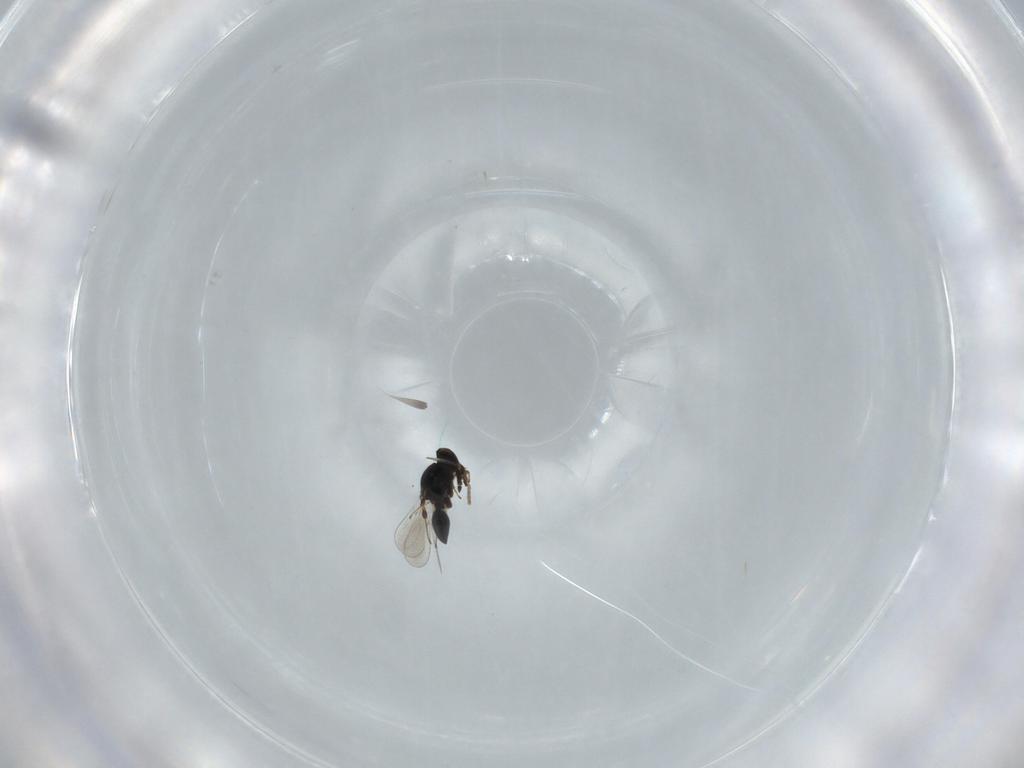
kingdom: Animalia
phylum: Arthropoda
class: Insecta
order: Hymenoptera
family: Platygastridae
